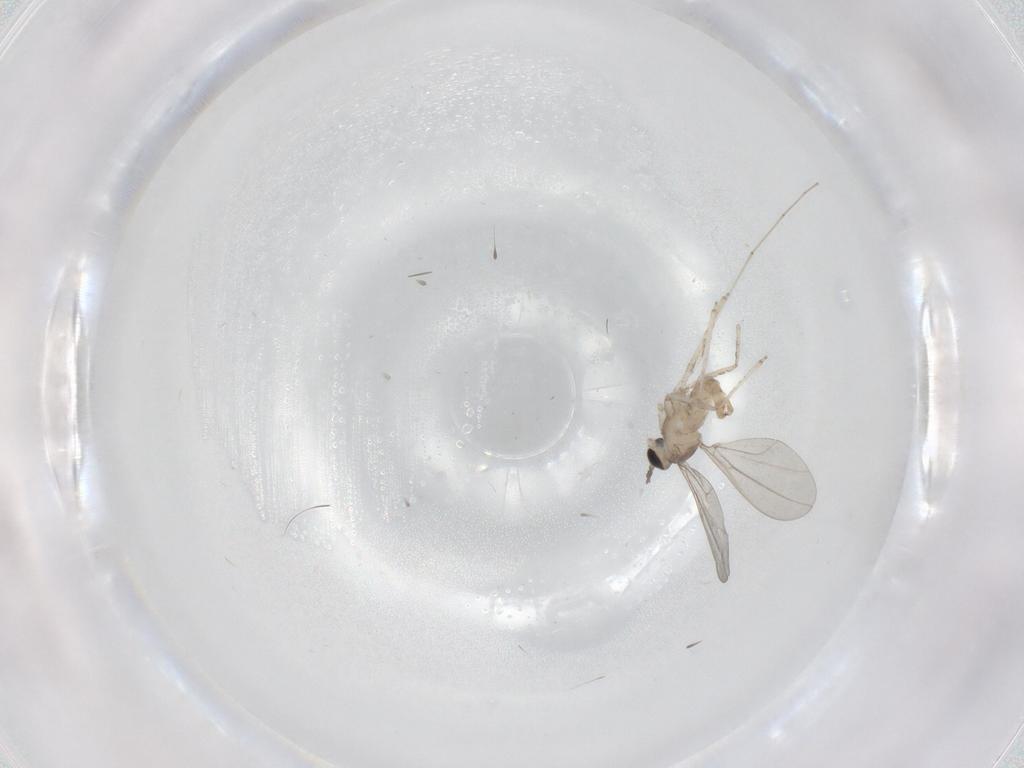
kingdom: Animalia
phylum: Arthropoda
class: Insecta
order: Diptera
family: Cecidomyiidae
